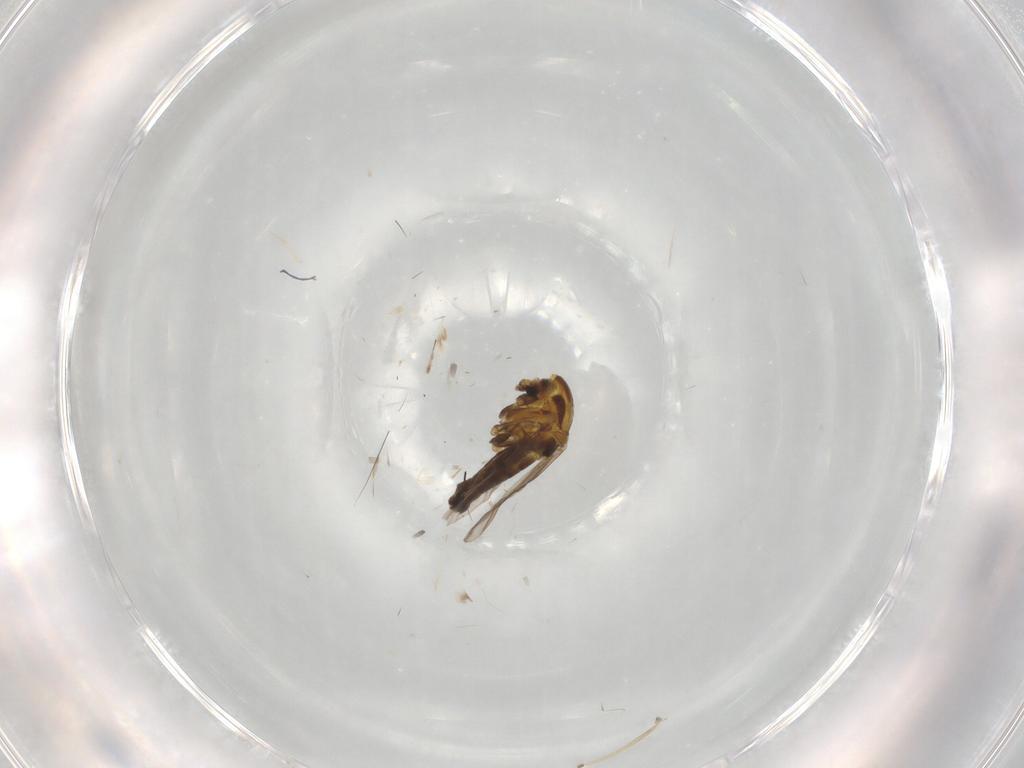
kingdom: Animalia
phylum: Arthropoda
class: Insecta
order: Diptera
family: Chironomidae
